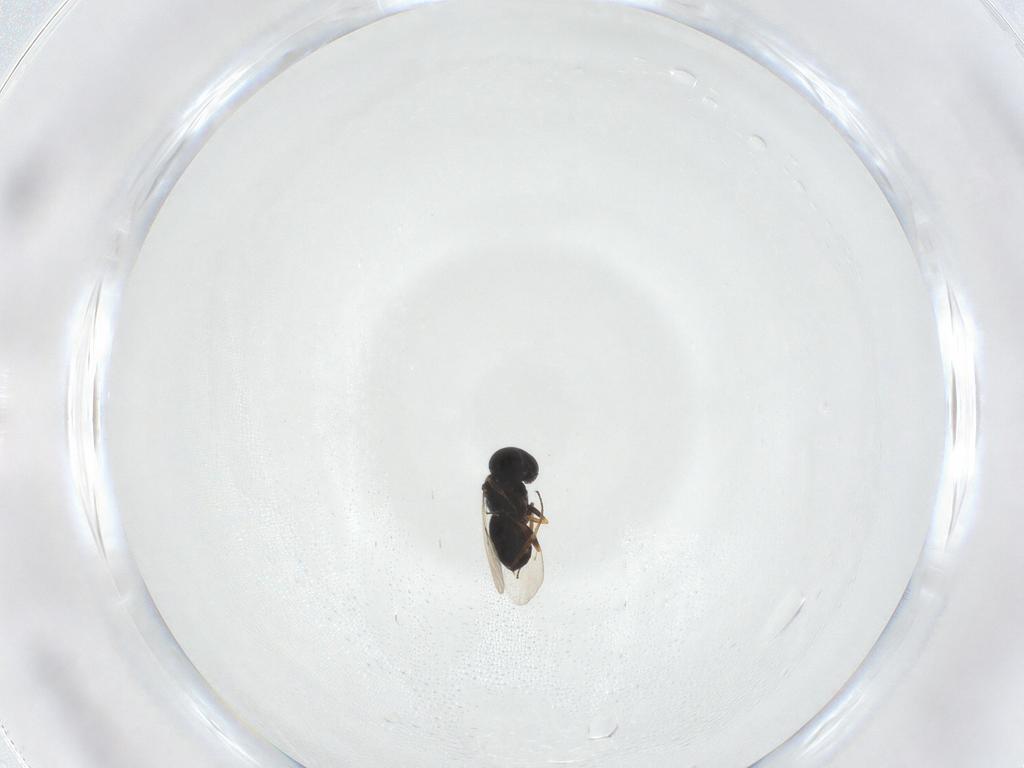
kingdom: Animalia
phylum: Arthropoda
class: Insecta
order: Hymenoptera
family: Scelionidae
